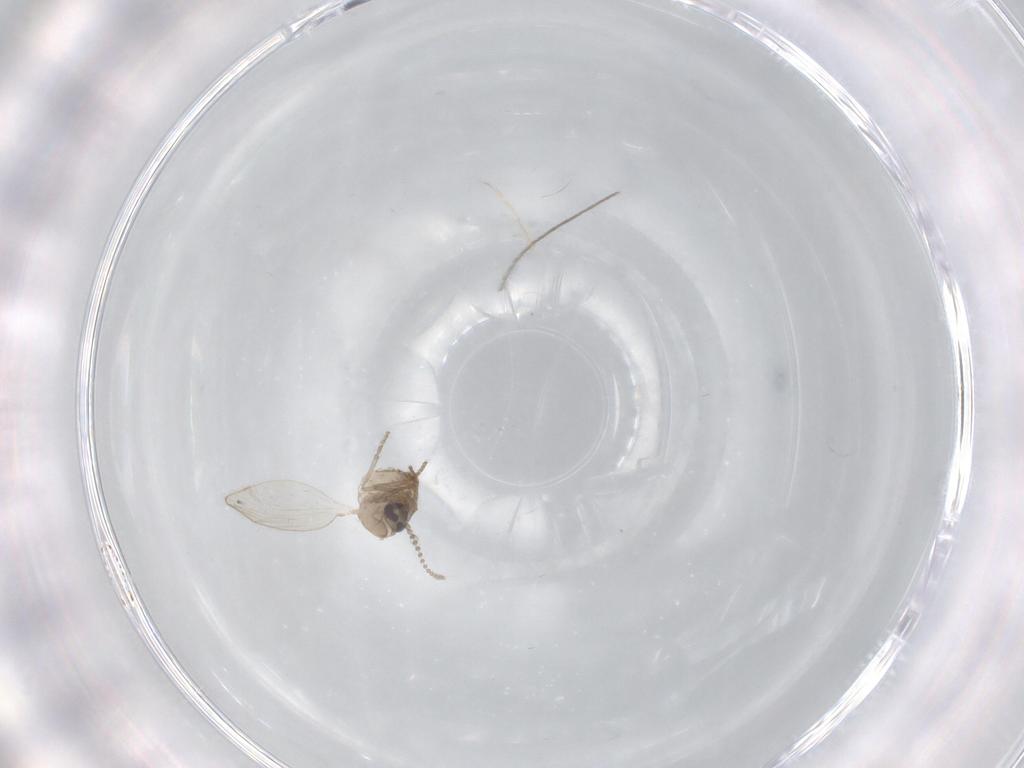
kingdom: Animalia
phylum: Arthropoda
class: Insecta
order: Diptera
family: Psychodidae
